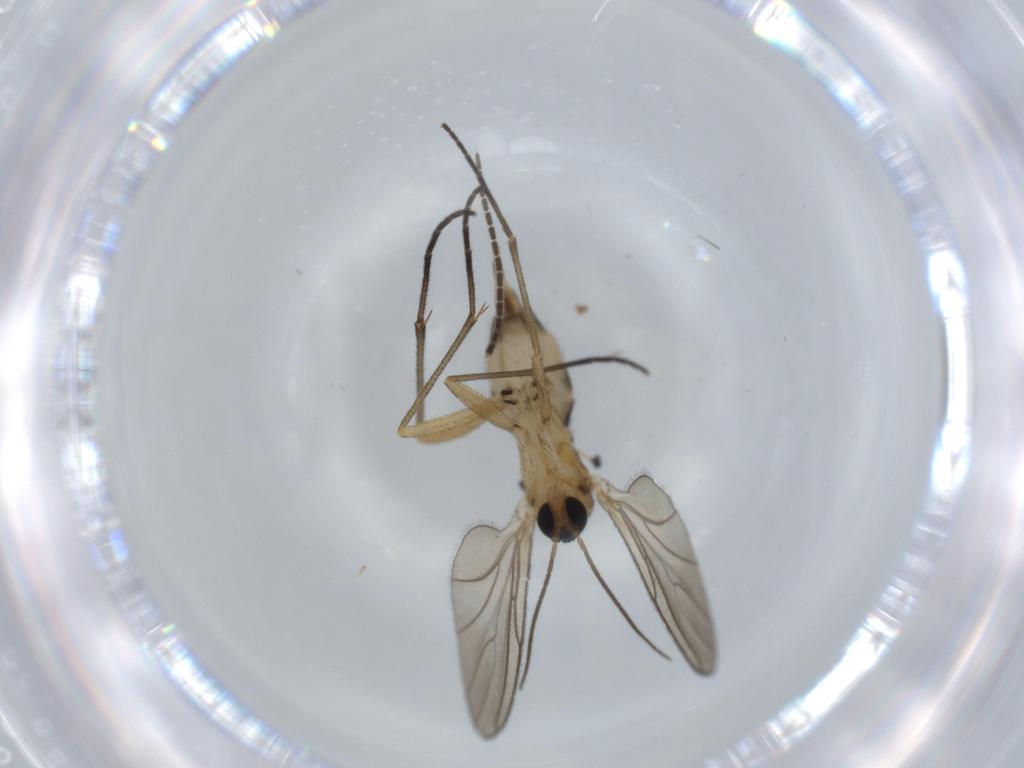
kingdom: Animalia
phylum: Arthropoda
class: Insecta
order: Diptera
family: Sciaridae
